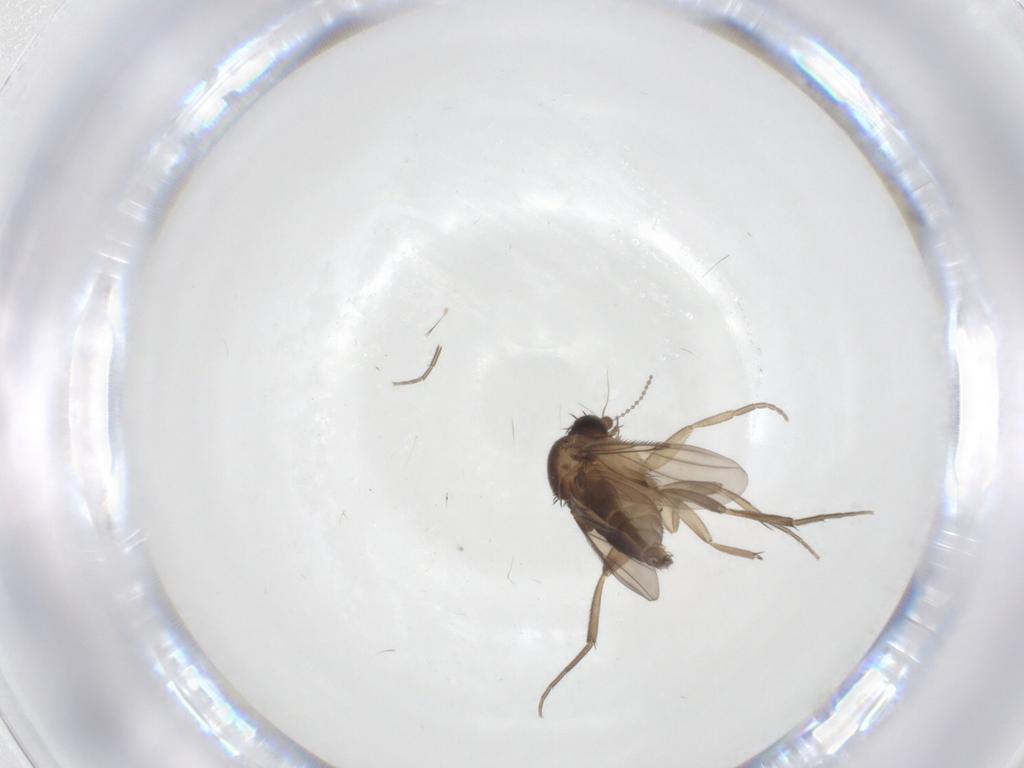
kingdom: Animalia
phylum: Arthropoda
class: Insecta
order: Diptera
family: Phoridae
